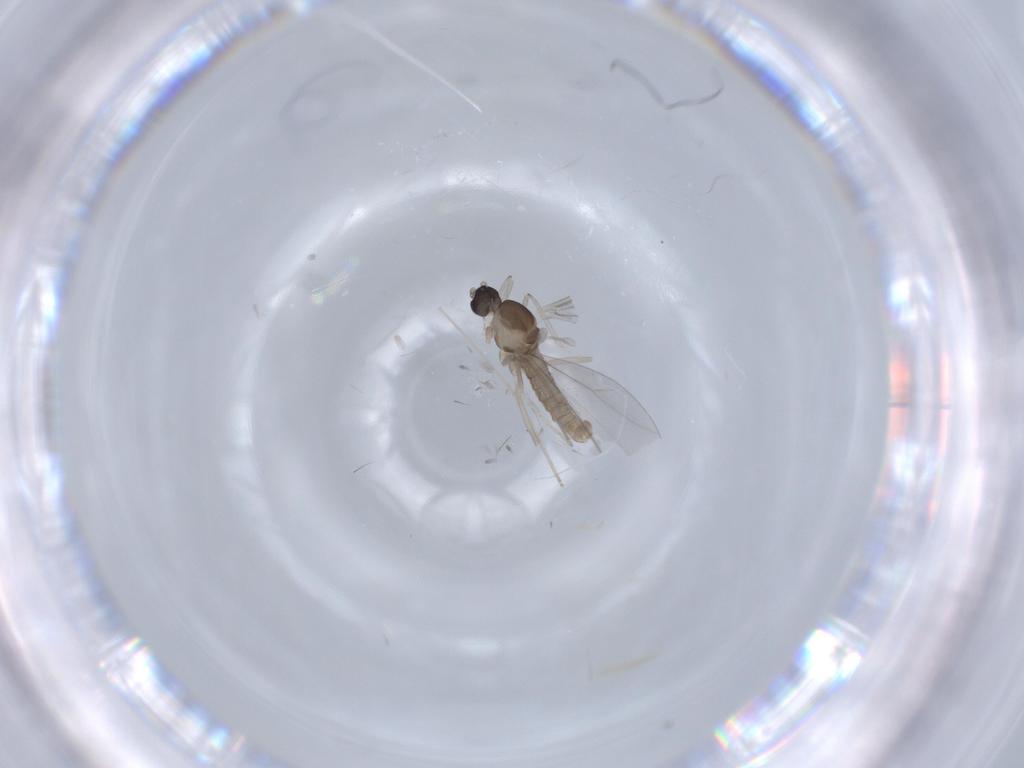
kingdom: Animalia
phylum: Arthropoda
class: Insecta
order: Diptera
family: Cecidomyiidae
